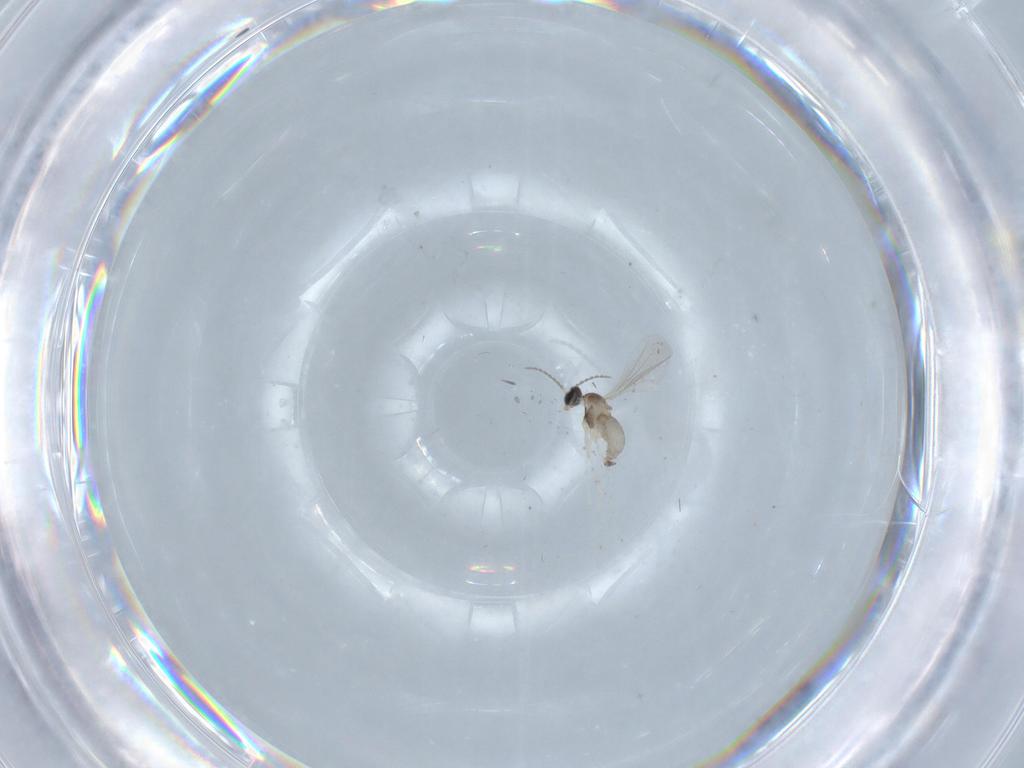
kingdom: Animalia
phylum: Arthropoda
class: Insecta
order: Diptera
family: Cecidomyiidae
